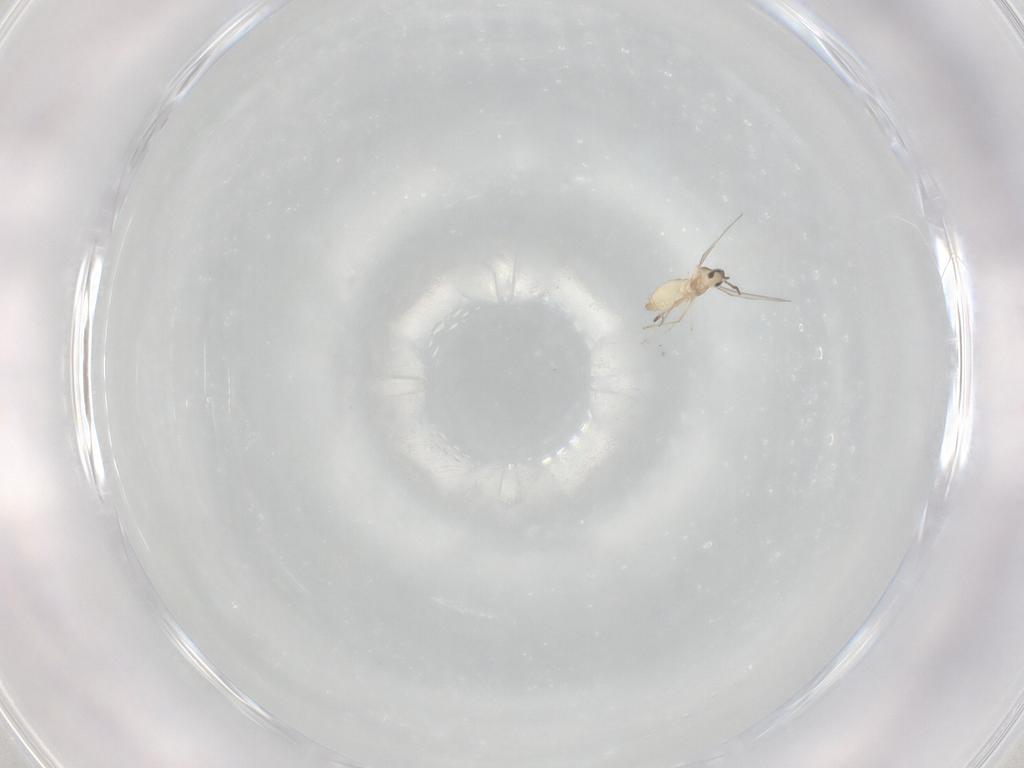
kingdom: Animalia
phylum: Arthropoda
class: Insecta
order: Diptera
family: Cecidomyiidae
